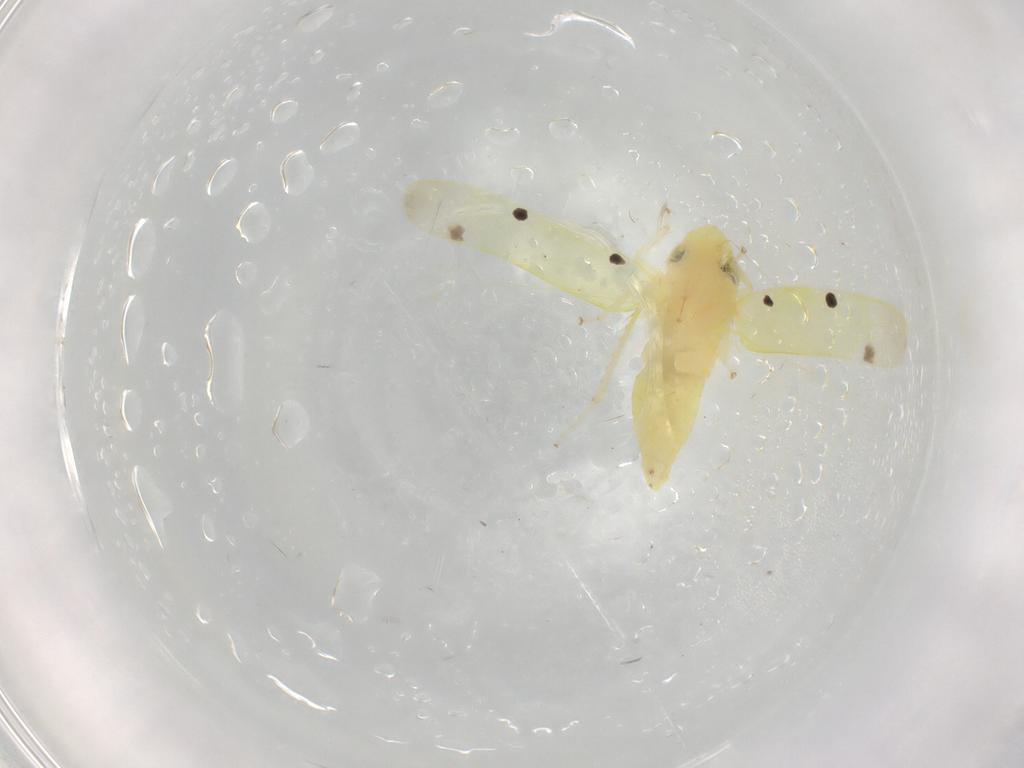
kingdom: Animalia
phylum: Arthropoda
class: Insecta
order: Hemiptera
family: Cicadellidae
